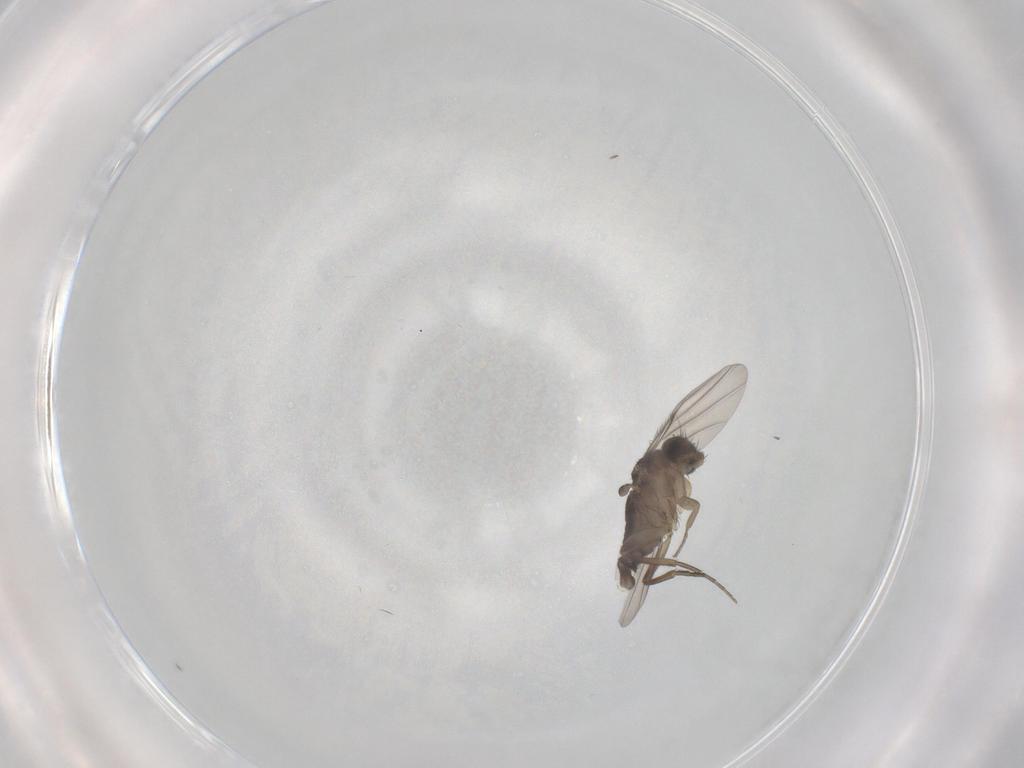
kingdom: Animalia
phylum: Arthropoda
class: Insecta
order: Diptera
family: Phoridae
